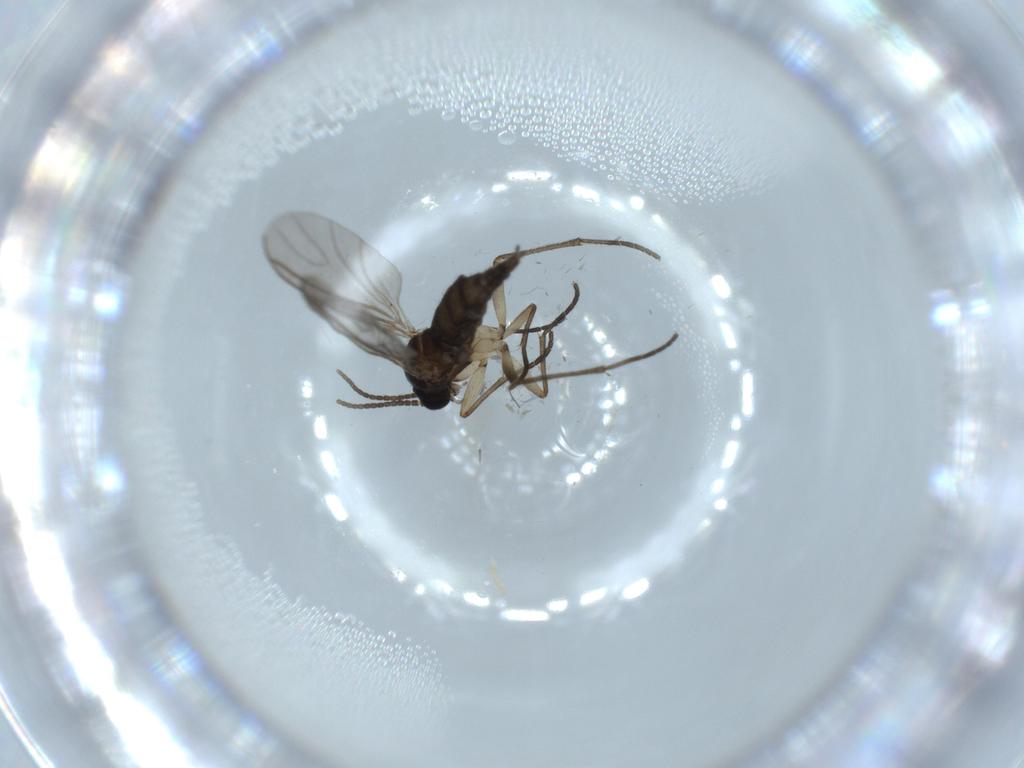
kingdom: Animalia
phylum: Arthropoda
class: Insecta
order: Diptera
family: Sciaridae
